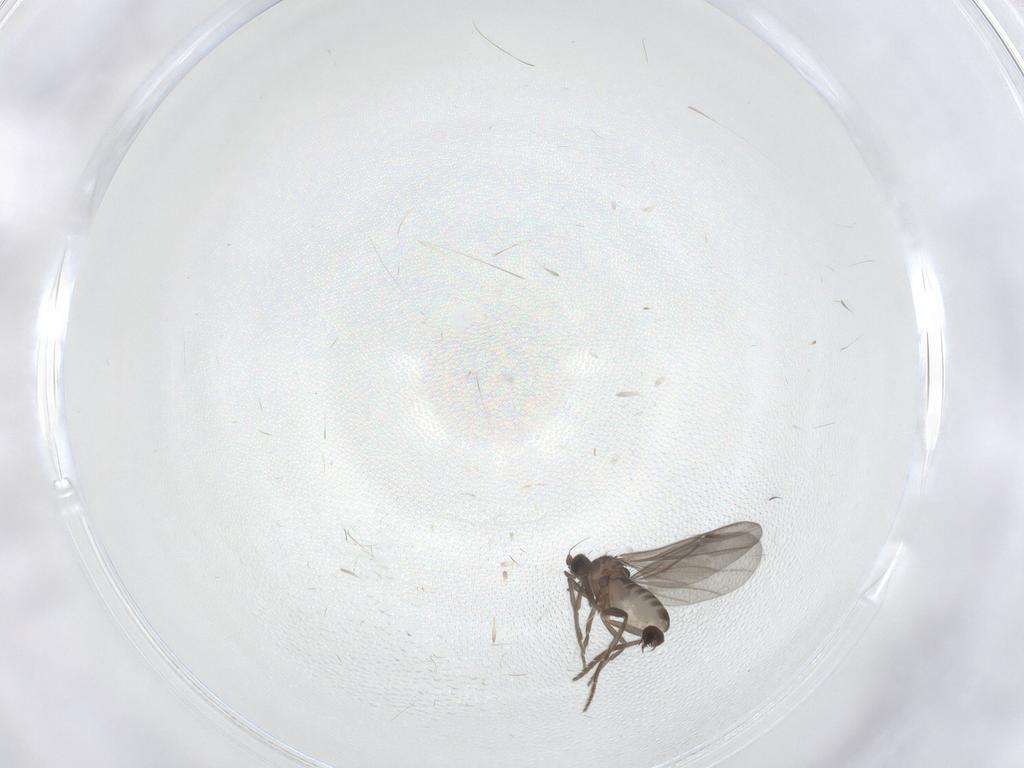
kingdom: Animalia
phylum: Arthropoda
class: Insecta
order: Diptera
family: Phoridae
